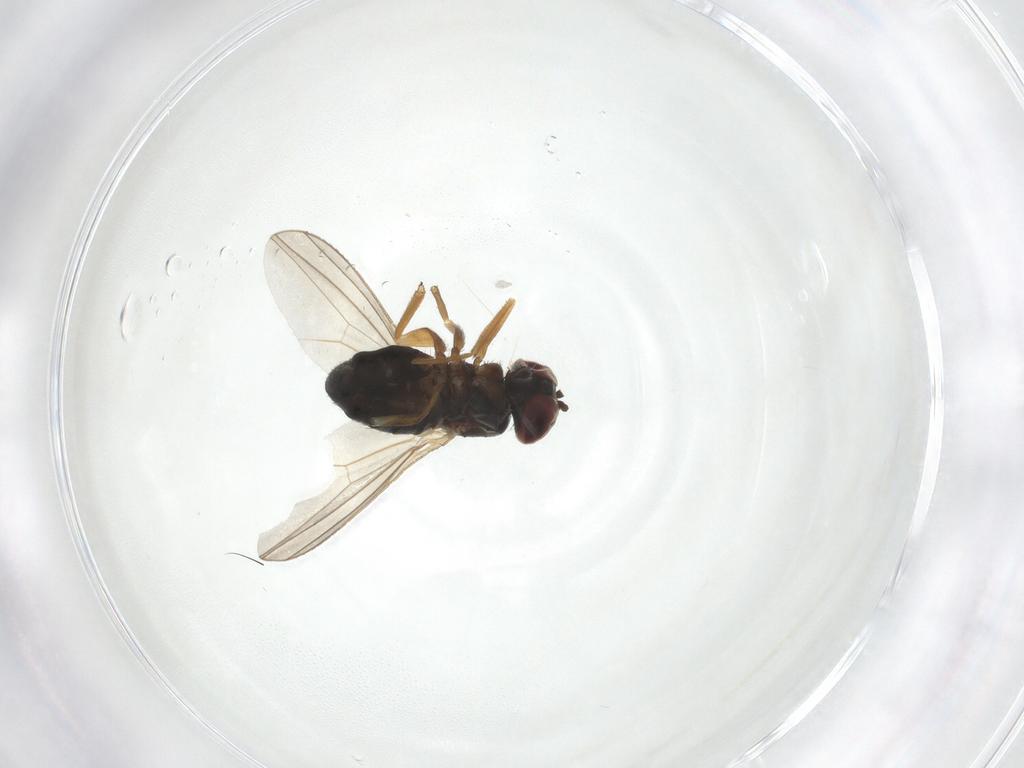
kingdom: Animalia
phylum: Arthropoda
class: Insecta
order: Diptera
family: Dolichopodidae
